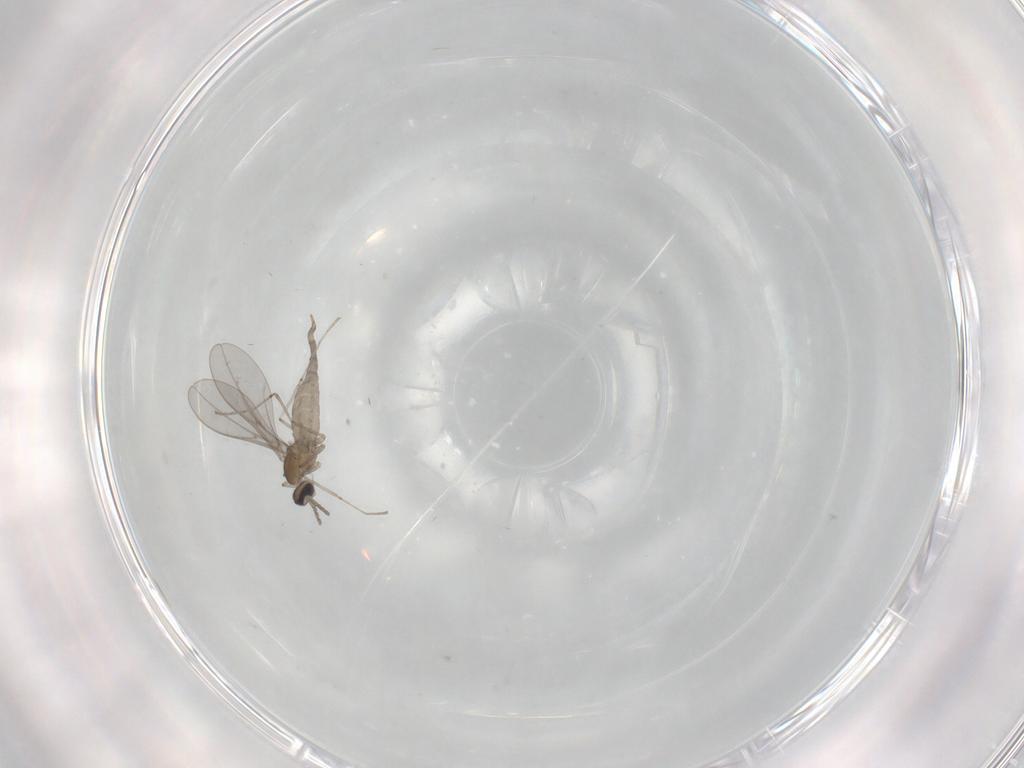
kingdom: Animalia
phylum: Arthropoda
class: Insecta
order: Diptera
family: Cecidomyiidae
